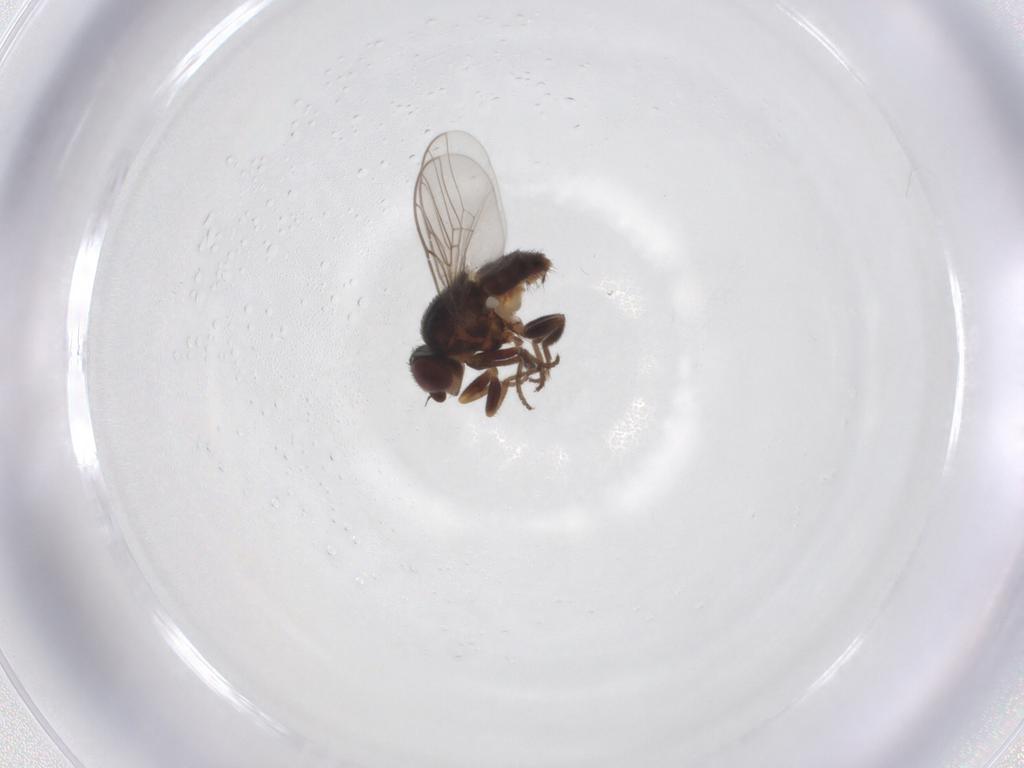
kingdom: Animalia
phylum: Arthropoda
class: Insecta
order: Diptera
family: Chloropidae
